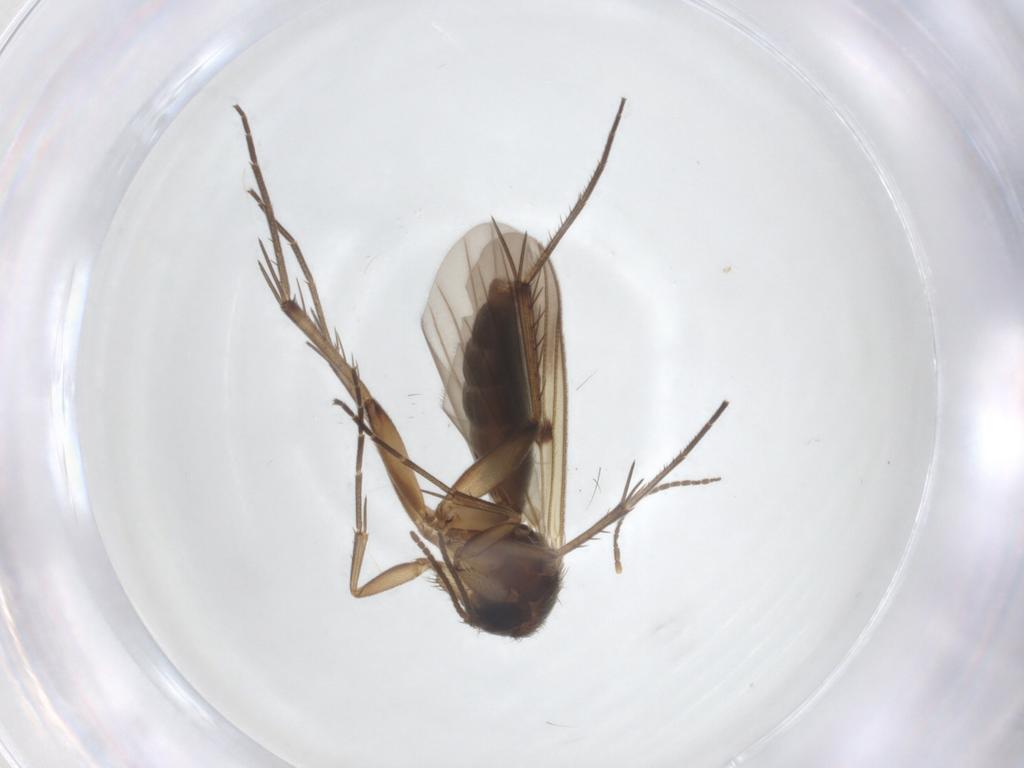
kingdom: Animalia
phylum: Arthropoda
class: Insecta
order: Diptera
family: Mycetophilidae
